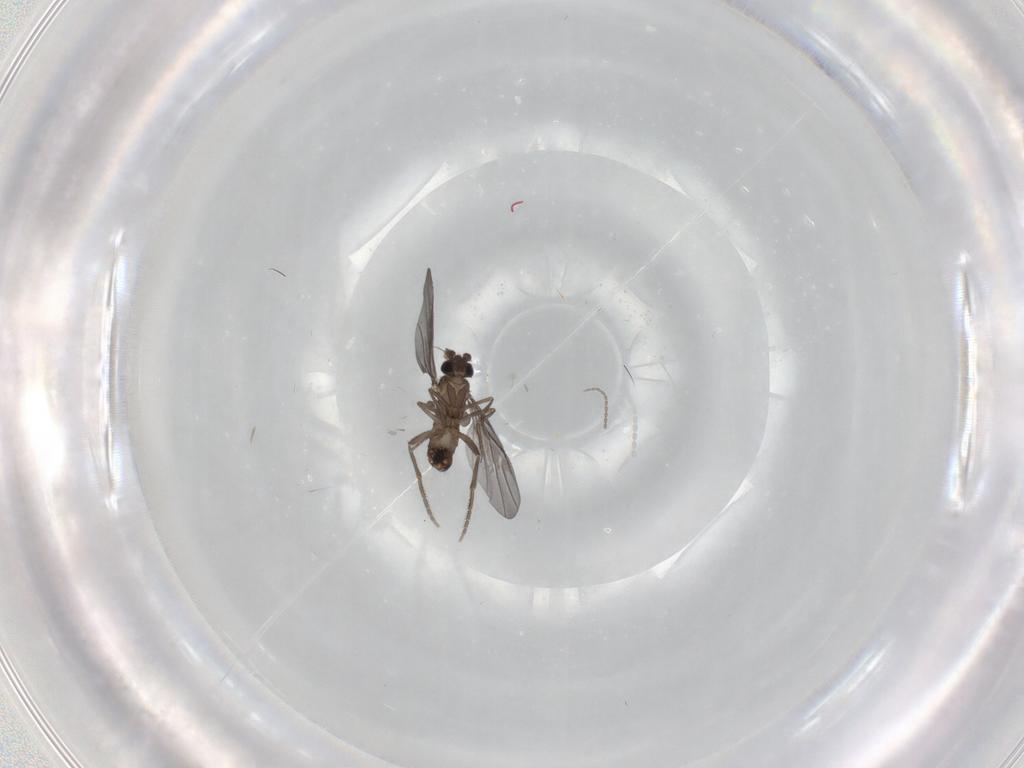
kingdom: Animalia
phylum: Arthropoda
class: Insecta
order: Diptera
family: Phoridae
